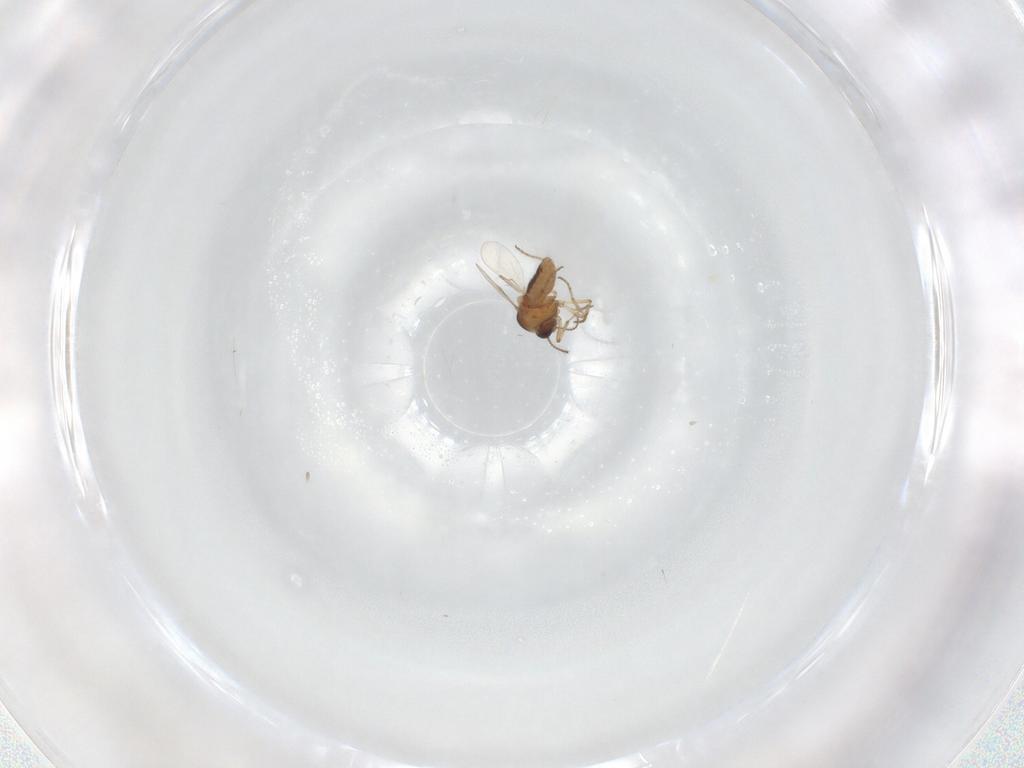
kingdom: Animalia
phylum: Arthropoda
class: Insecta
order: Diptera
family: Ceratopogonidae
